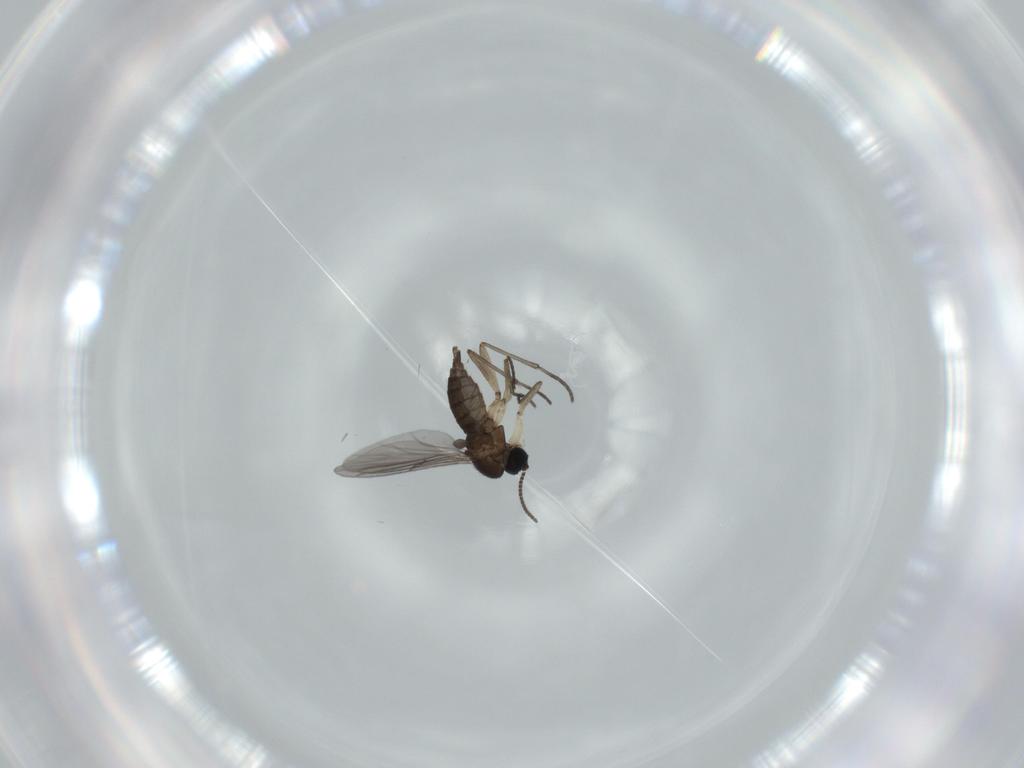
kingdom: Animalia
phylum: Arthropoda
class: Insecta
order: Diptera
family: Sciaridae
